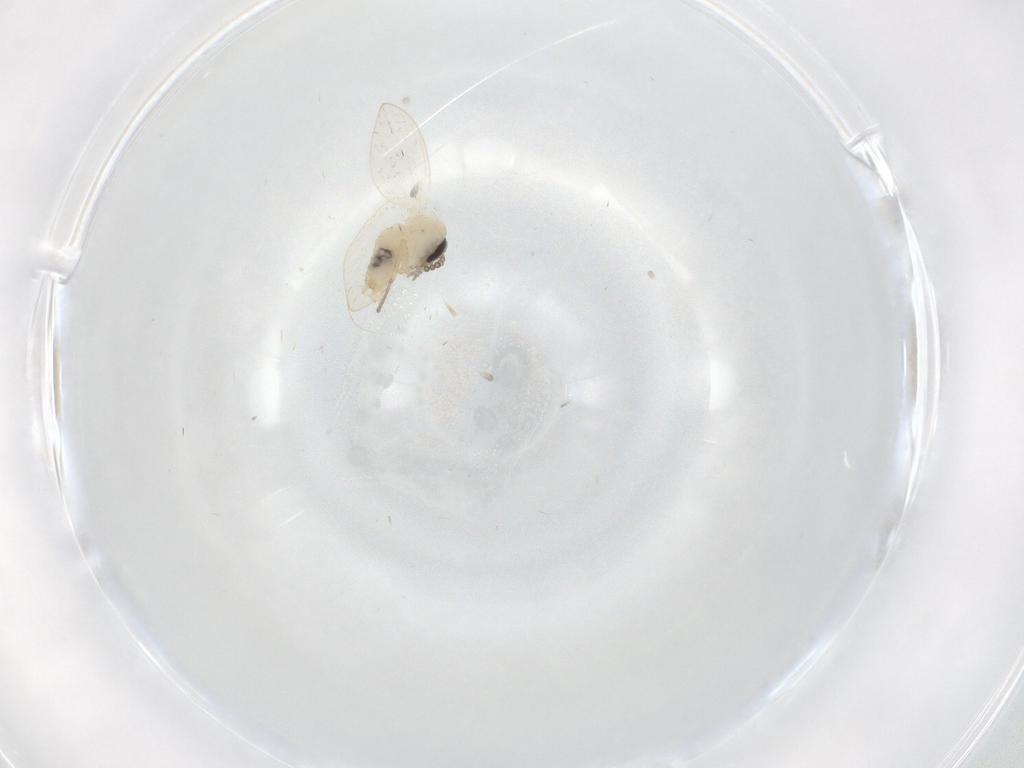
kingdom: Animalia
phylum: Arthropoda
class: Insecta
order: Diptera
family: Psychodidae
